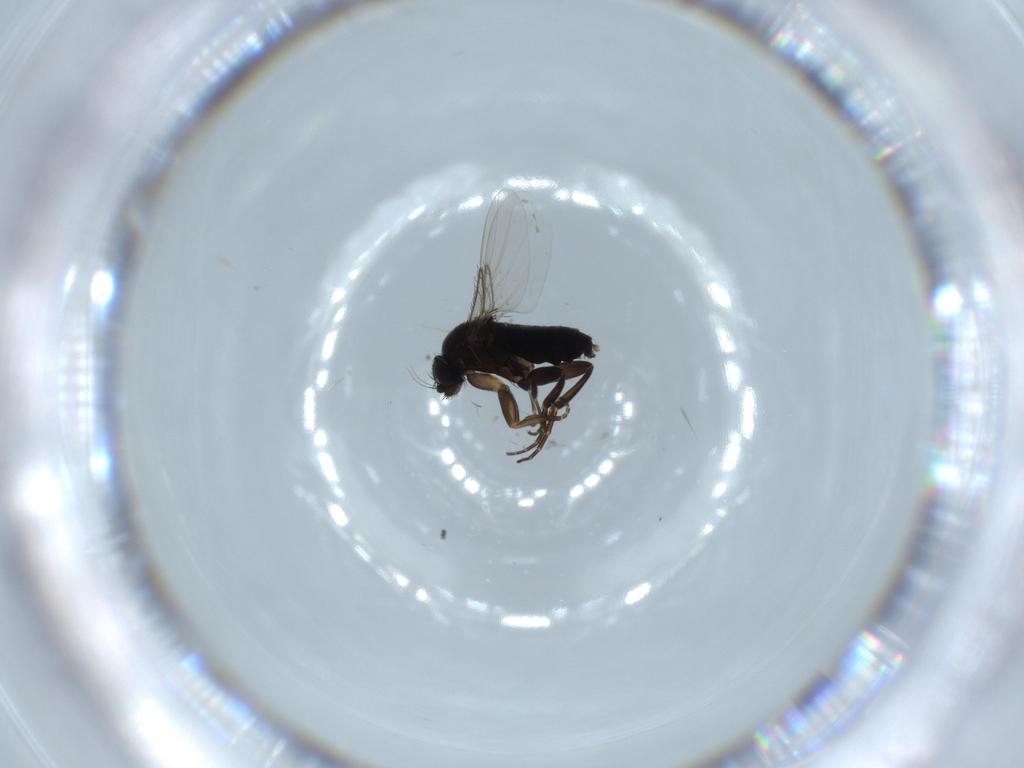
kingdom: Animalia
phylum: Arthropoda
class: Insecta
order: Diptera
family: Phoridae
